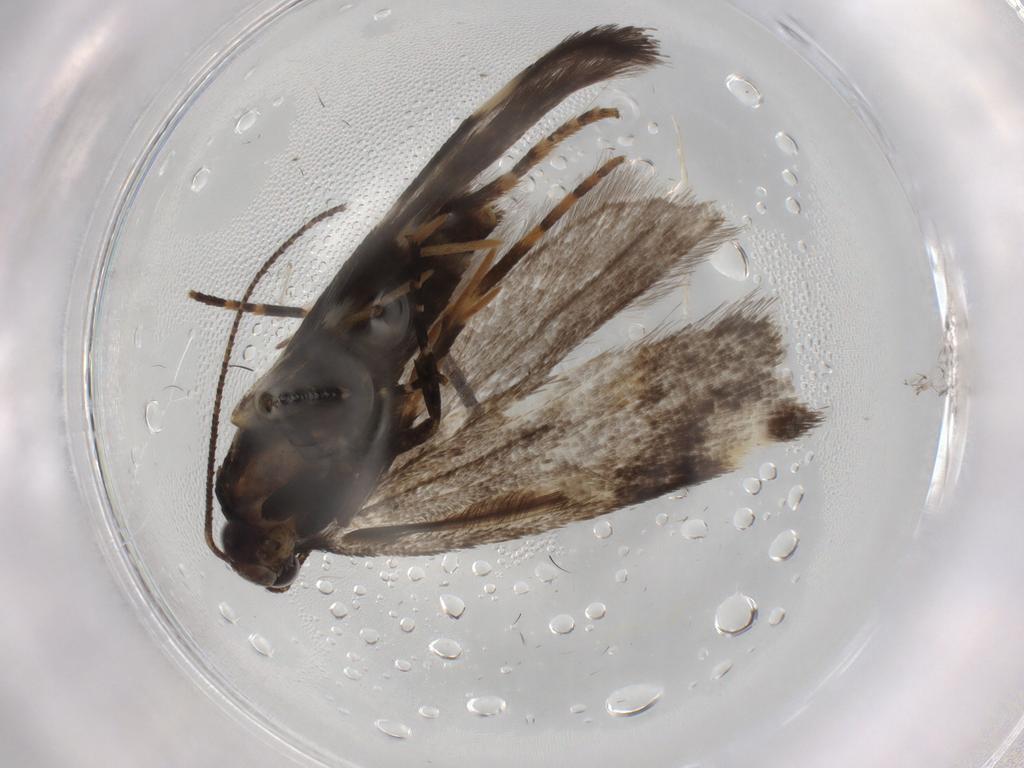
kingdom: Animalia
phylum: Arthropoda
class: Insecta
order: Lepidoptera
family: Gelechiidae
